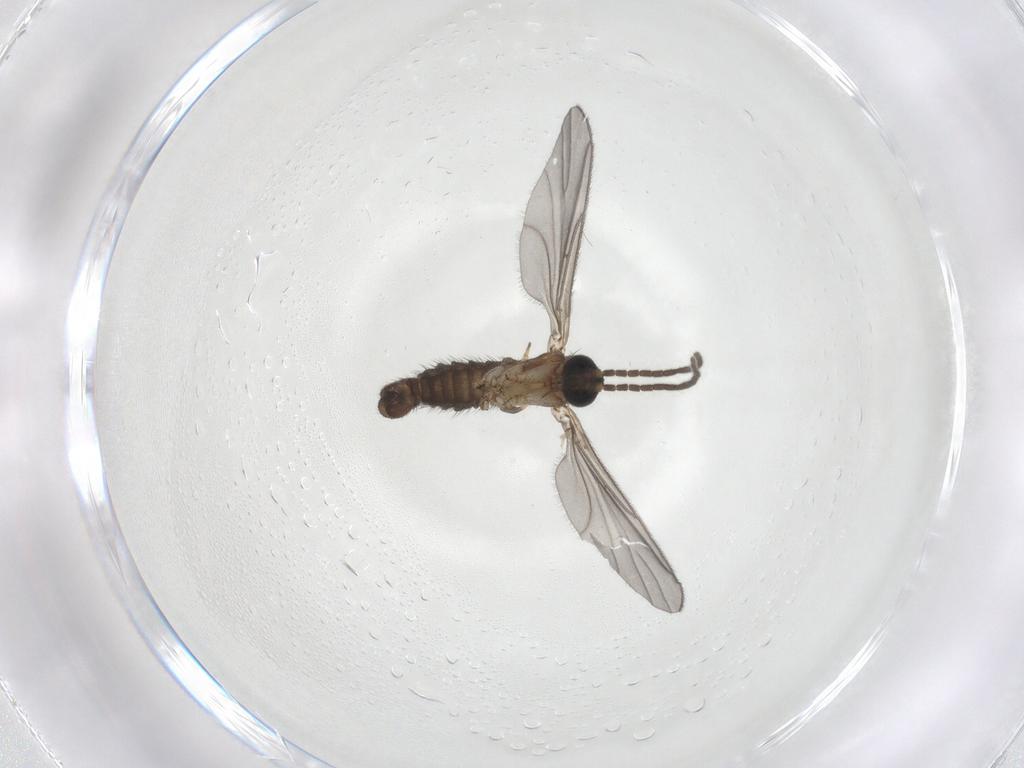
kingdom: Animalia
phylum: Arthropoda
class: Insecta
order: Diptera
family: Sciaridae
